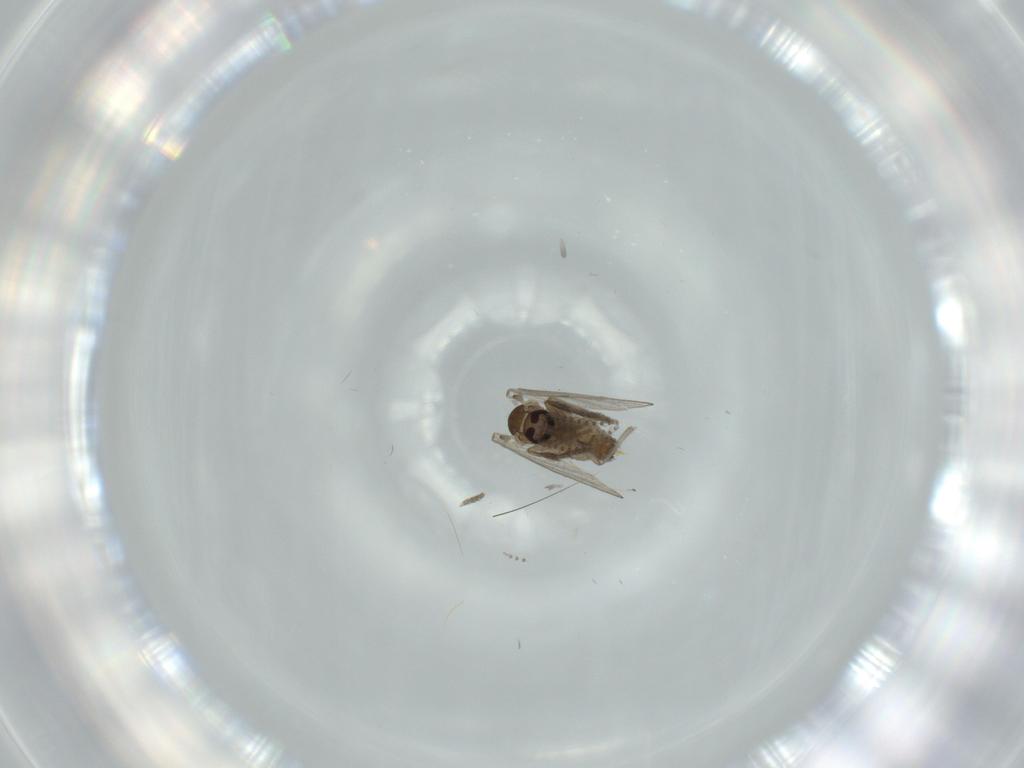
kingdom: Animalia
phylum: Arthropoda
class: Insecta
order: Diptera
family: Psychodidae
